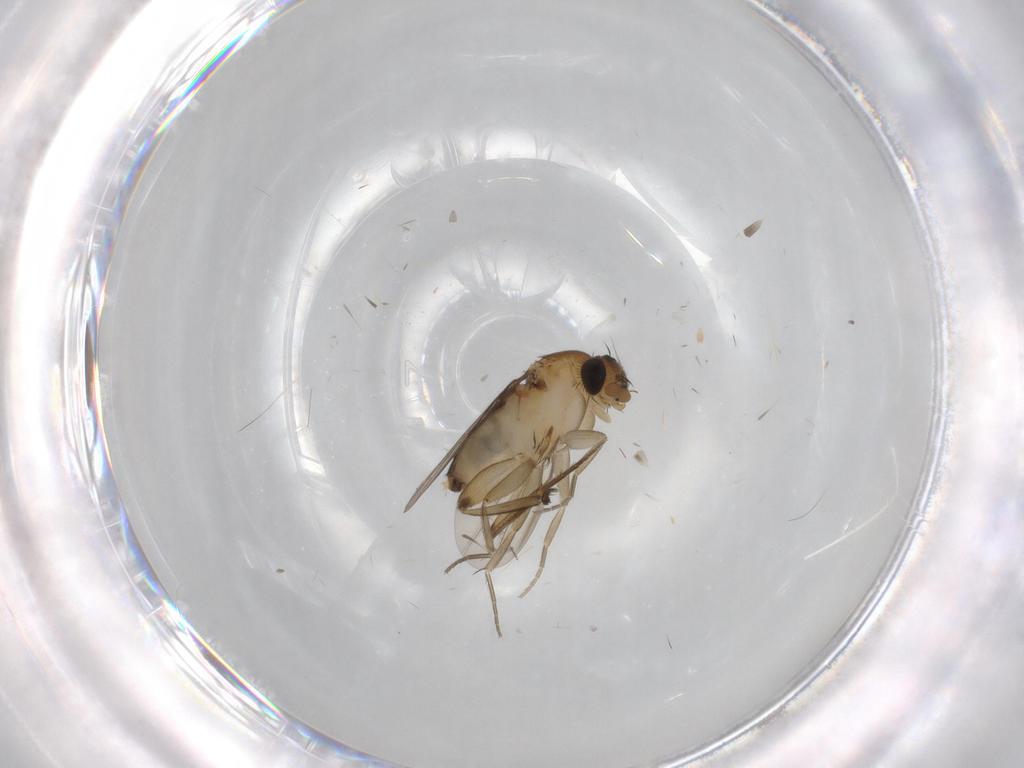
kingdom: Animalia
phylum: Arthropoda
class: Insecta
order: Diptera
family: Phoridae
